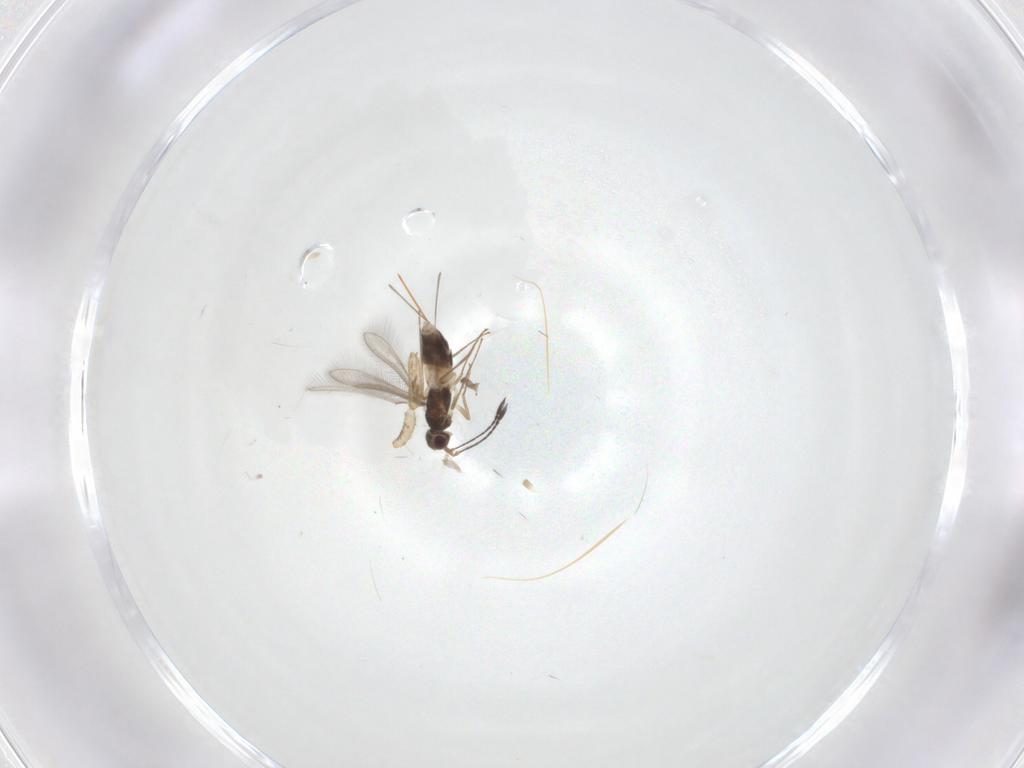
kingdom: Animalia
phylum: Arthropoda
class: Insecta
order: Hymenoptera
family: Mymaridae
